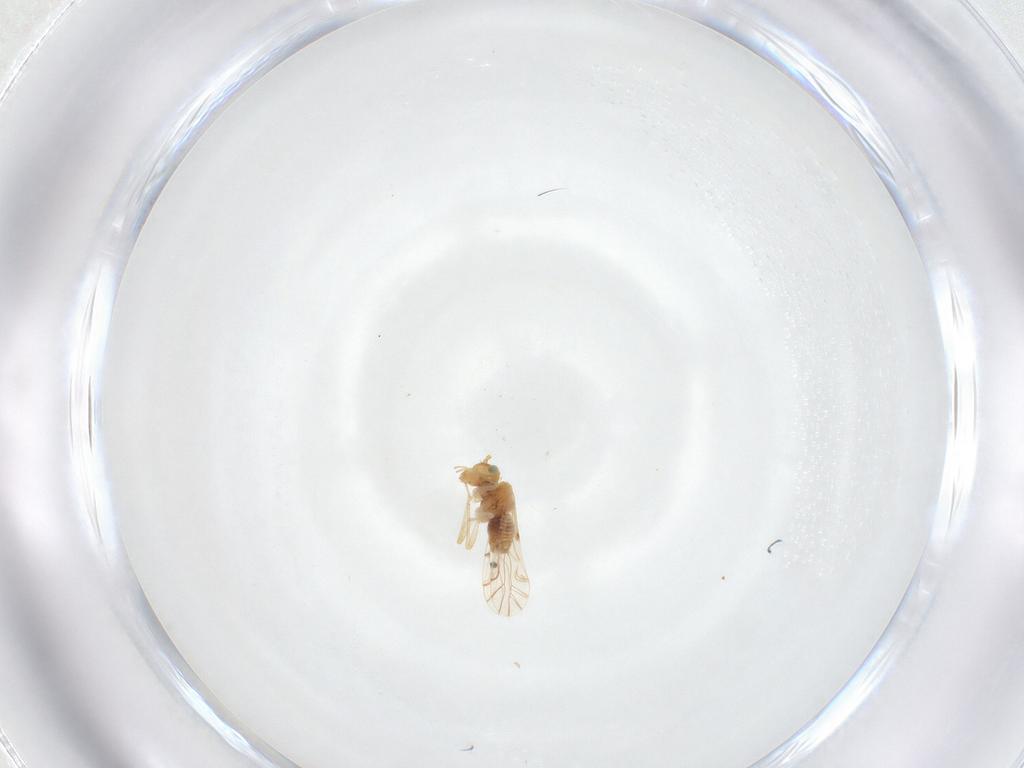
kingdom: Animalia
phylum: Arthropoda
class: Insecta
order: Psocodea
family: Lachesillidae
